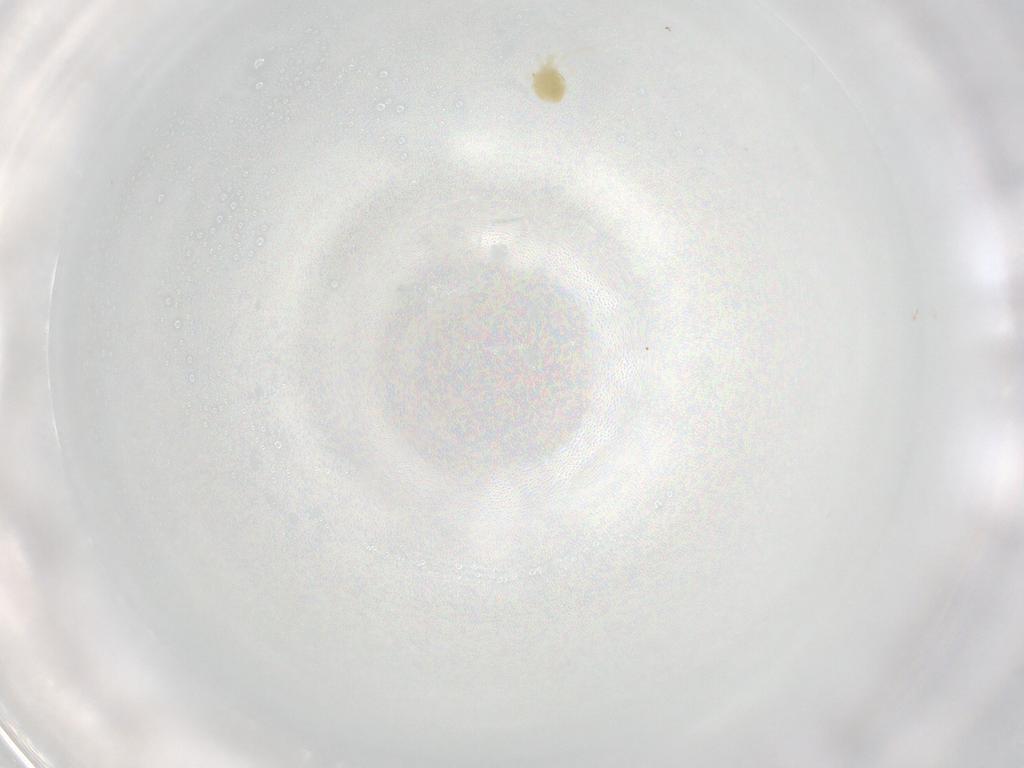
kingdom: Animalia
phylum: Arthropoda
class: Arachnida
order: Trombidiformes
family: Eupodidae
